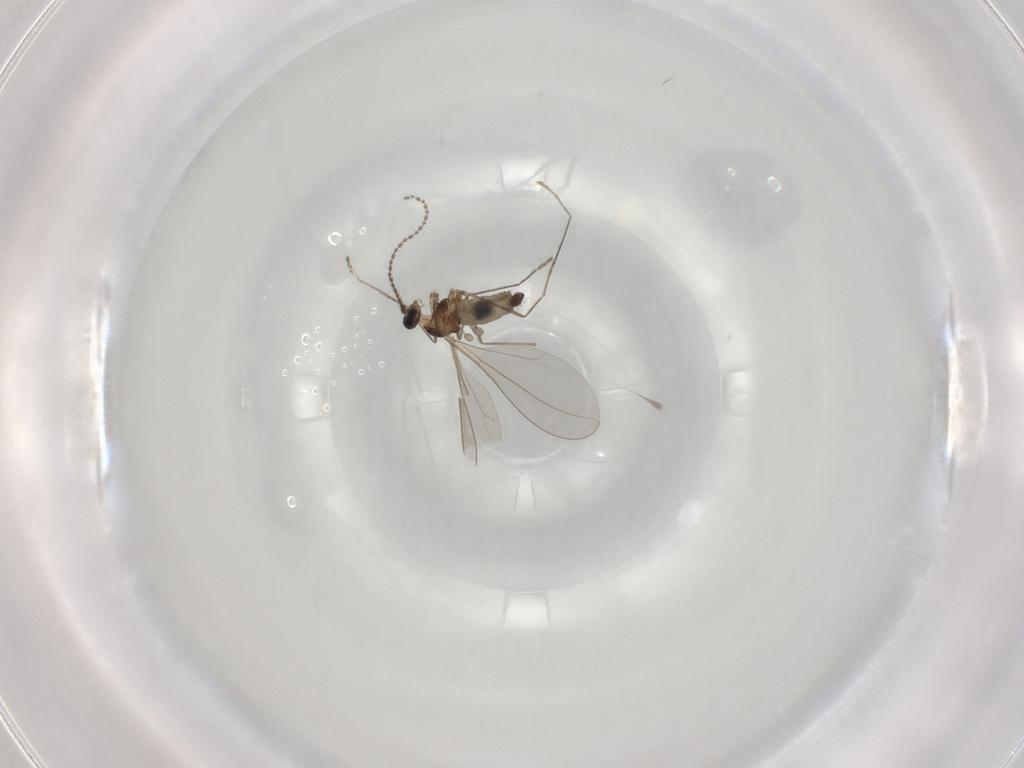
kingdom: Animalia
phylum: Arthropoda
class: Insecta
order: Diptera
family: Cecidomyiidae
